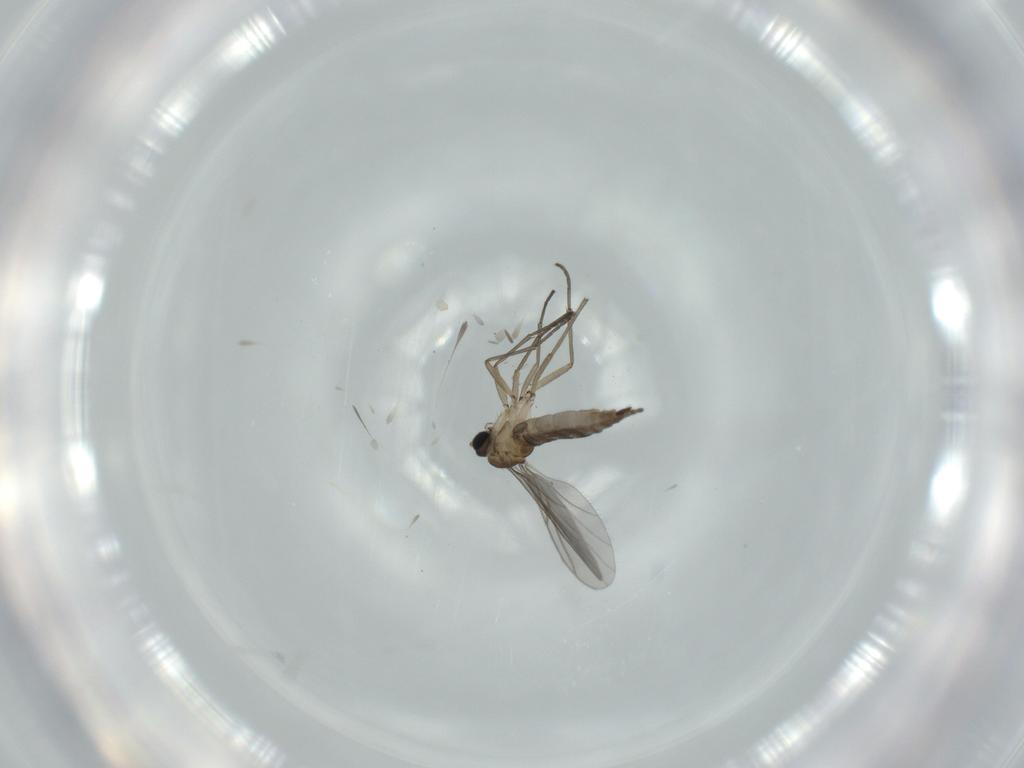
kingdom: Animalia
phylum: Arthropoda
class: Insecta
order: Diptera
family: Sciaridae
